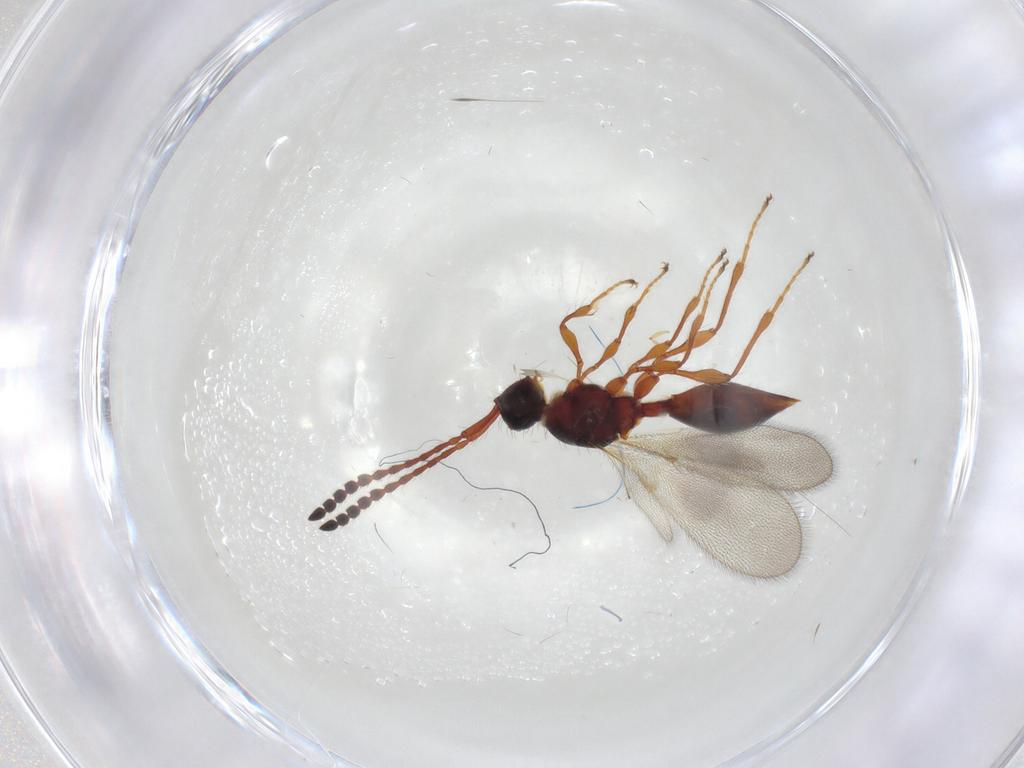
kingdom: Animalia
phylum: Arthropoda
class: Insecta
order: Hymenoptera
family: Diapriidae
